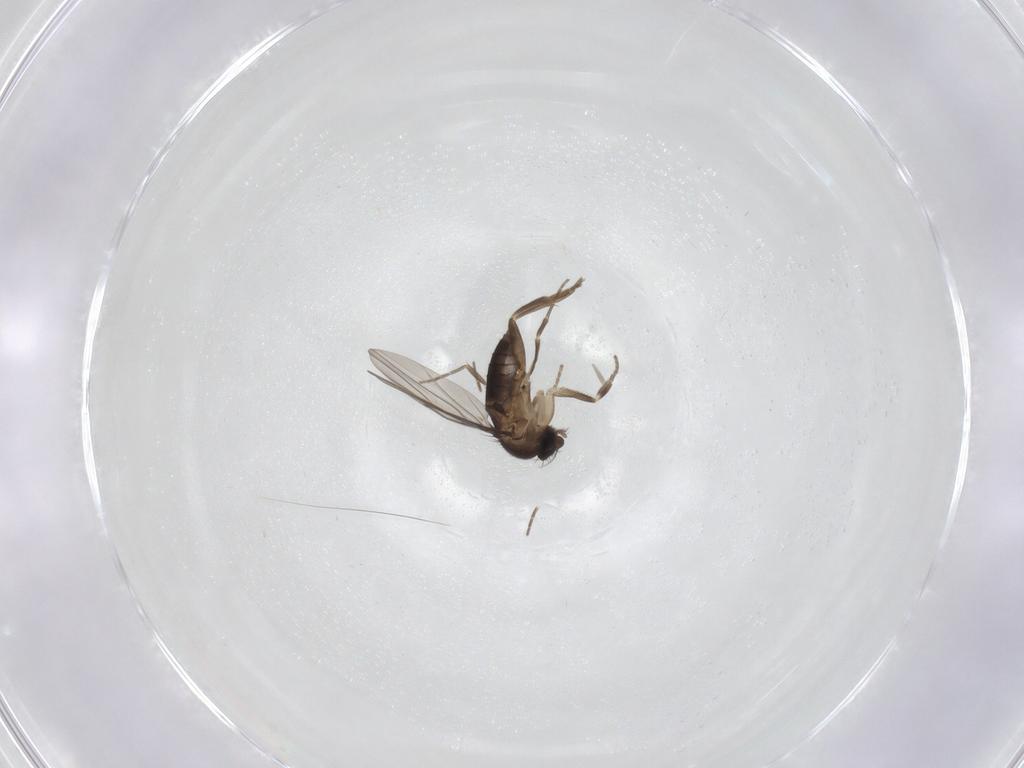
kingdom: Animalia
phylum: Arthropoda
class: Insecta
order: Diptera
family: Phoridae
